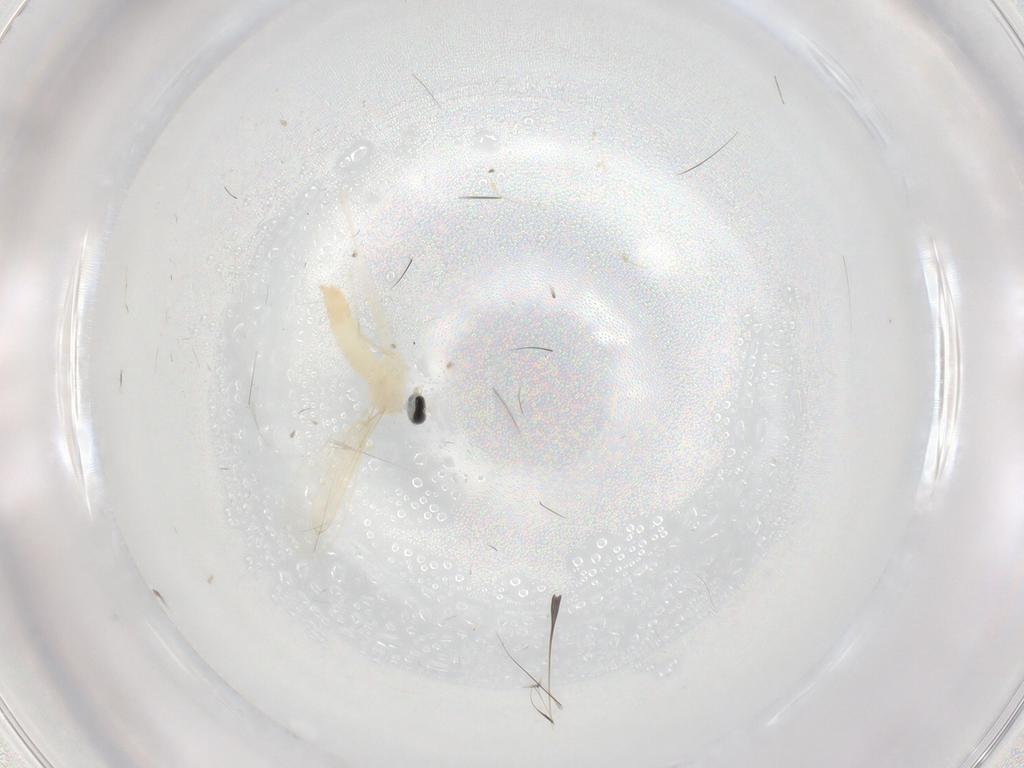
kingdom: Animalia
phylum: Arthropoda
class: Insecta
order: Diptera
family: Cecidomyiidae
